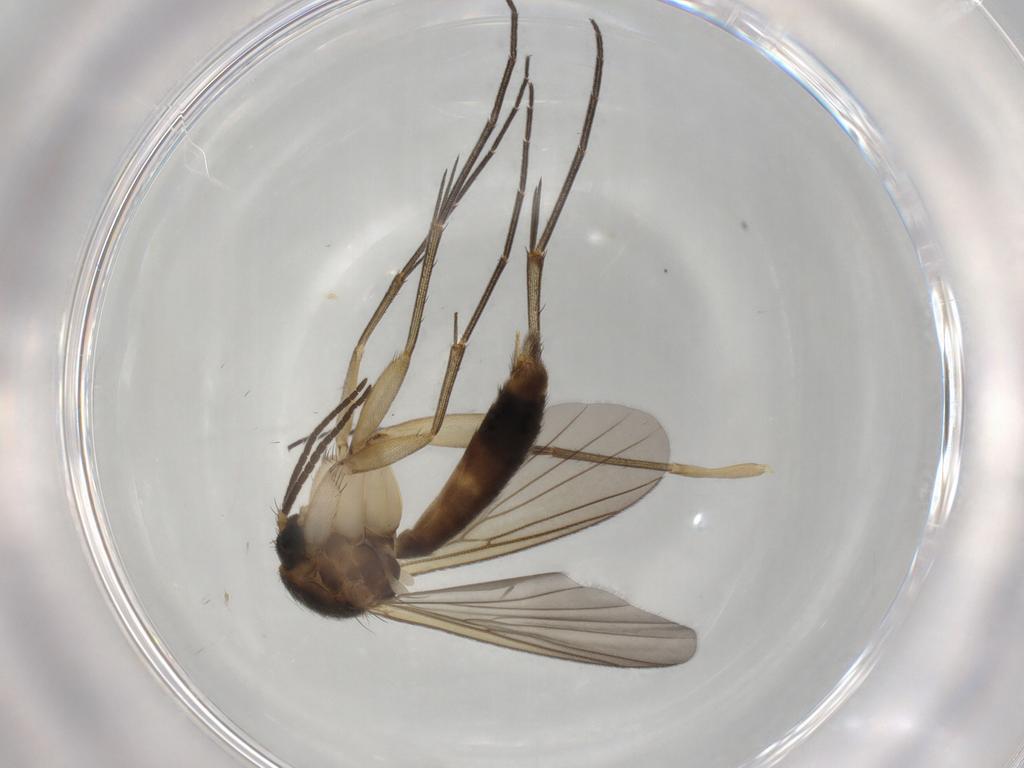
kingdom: Animalia
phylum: Arthropoda
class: Insecta
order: Diptera
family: Mycetophilidae
